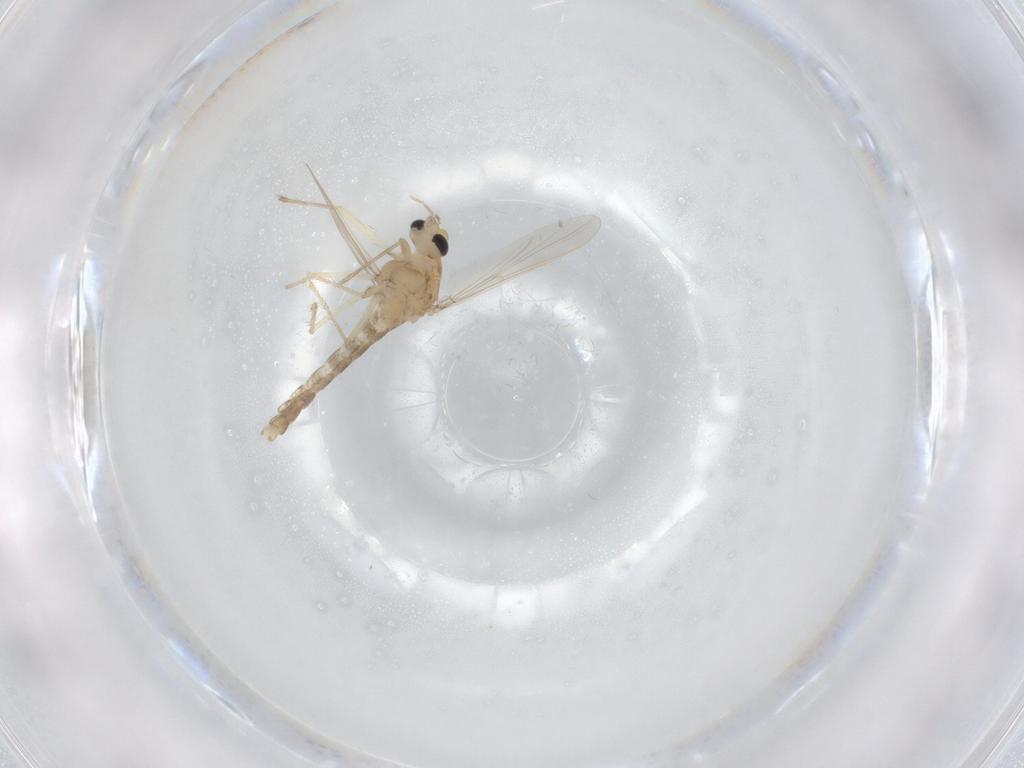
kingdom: Animalia
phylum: Arthropoda
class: Insecta
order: Diptera
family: Chironomidae
